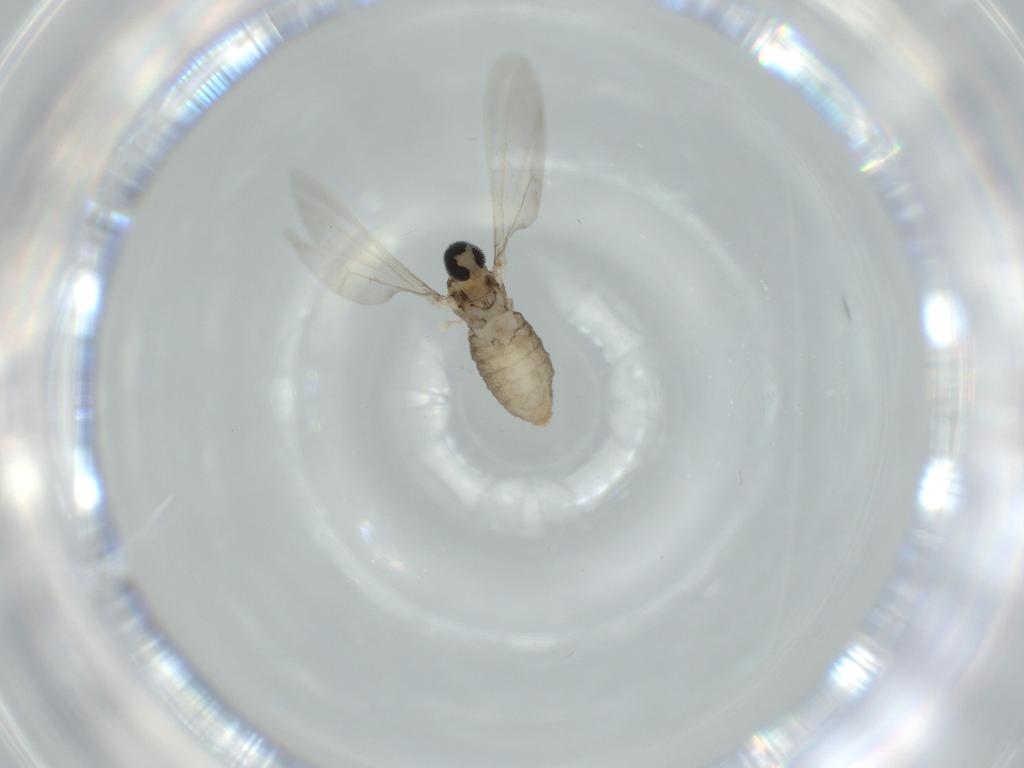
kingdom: Animalia
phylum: Arthropoda
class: Insecta
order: Diptera
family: Cecidomyiidae
